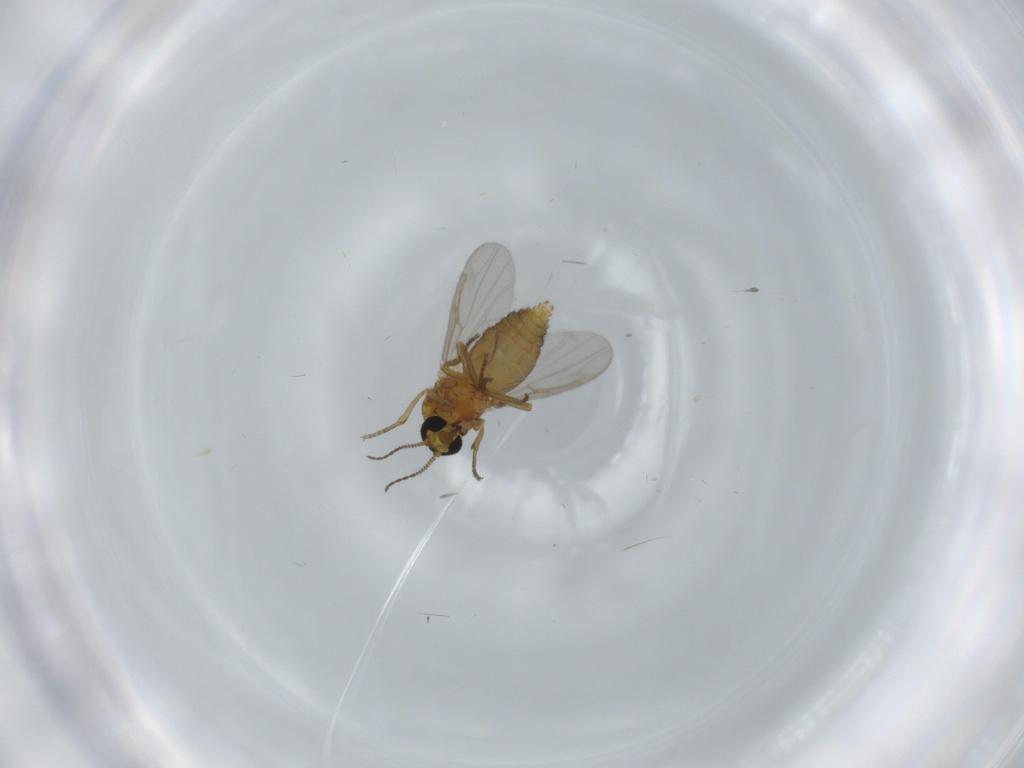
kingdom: Animalia
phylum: Arthropoda
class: Insecta
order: Diptera
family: Ceratopogonidae
